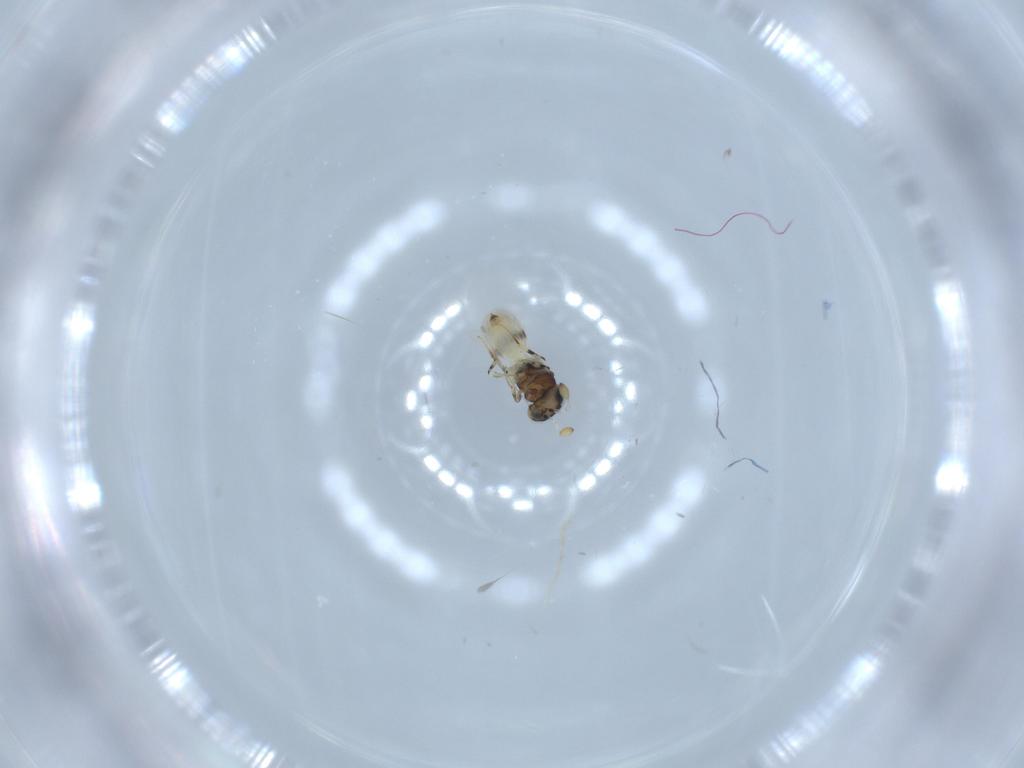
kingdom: Animalia
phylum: Arthropoda
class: Insecta
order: Hymenoptera
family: Scelionidae
